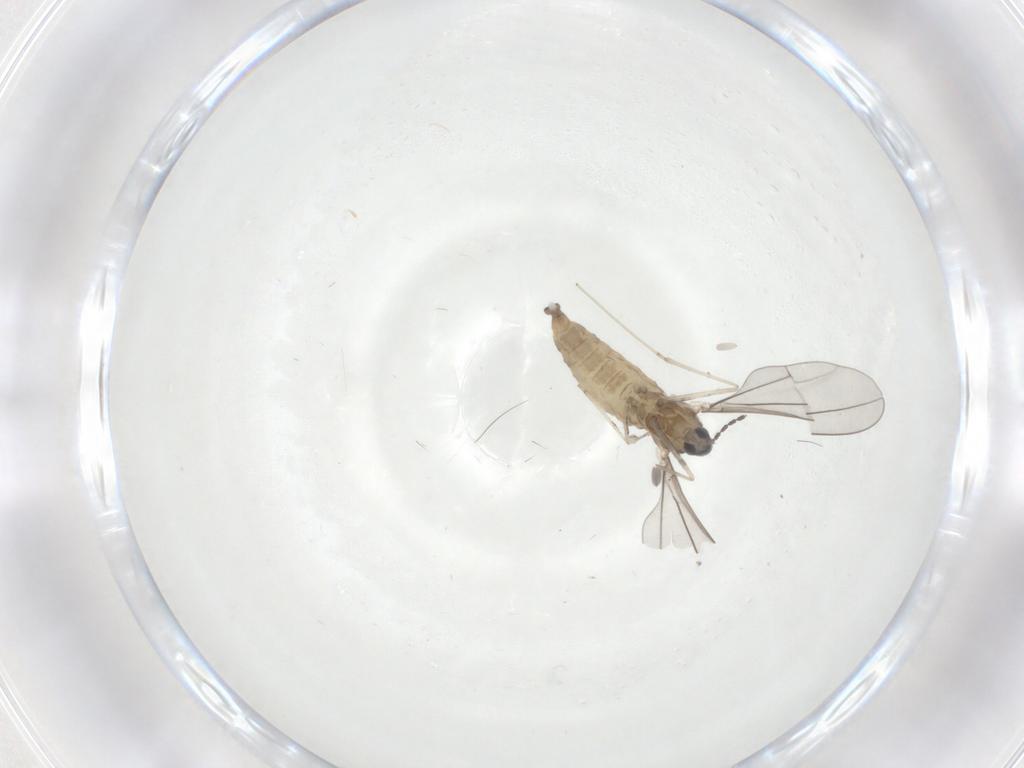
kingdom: Animalia
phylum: Arthropoda
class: Insecta
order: Diptera
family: Cecidomyiidae
